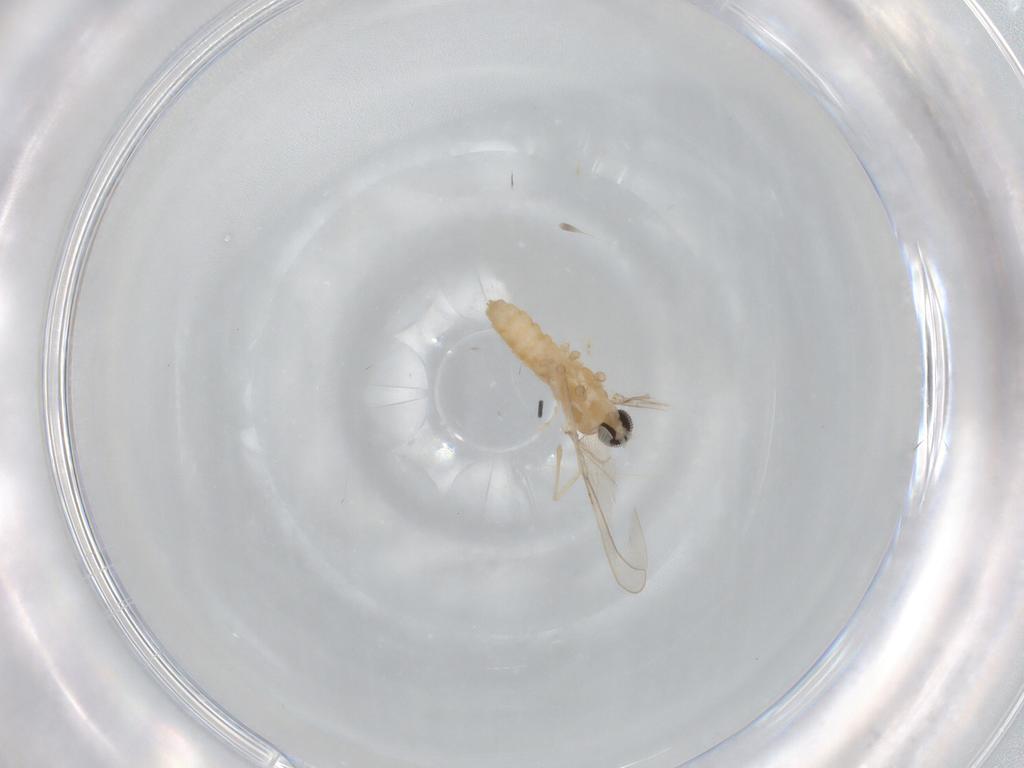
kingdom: Animalia
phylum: Arthropoda
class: Insecta
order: Diptera
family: Cecidomyiidae
